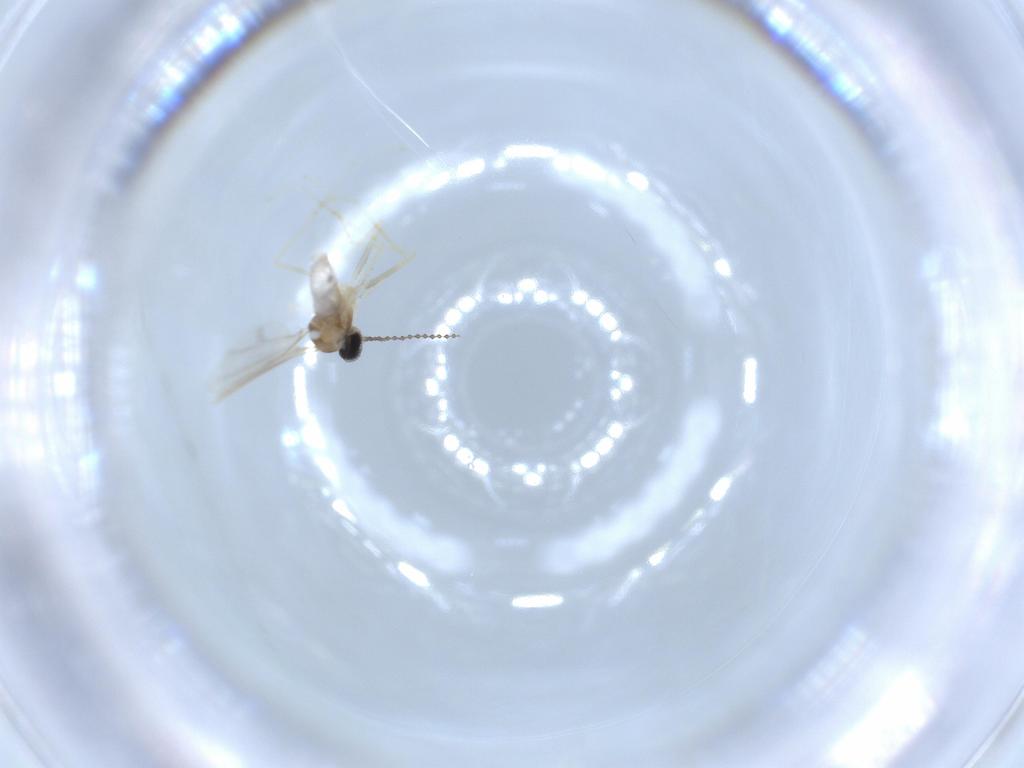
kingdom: Animalia
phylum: Arthropoda
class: Insecta
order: Diptera
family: Cecidomyiidae
